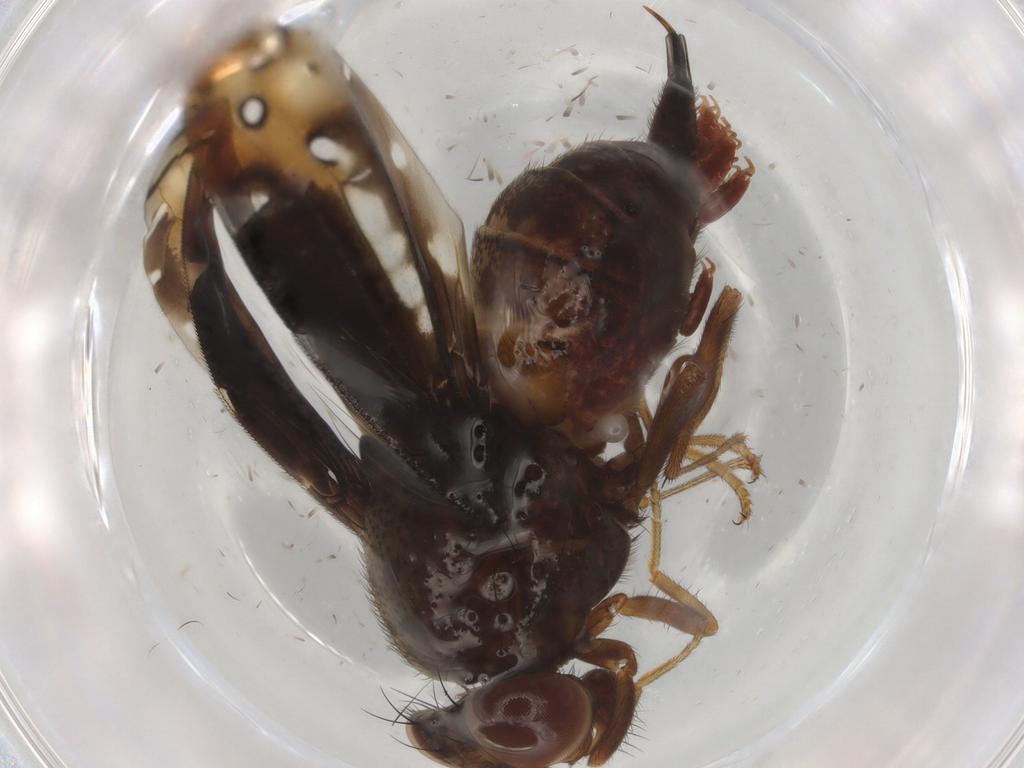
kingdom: Animalia
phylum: Arthropoda
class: Insecta
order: Diptera
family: Ulidiidae
